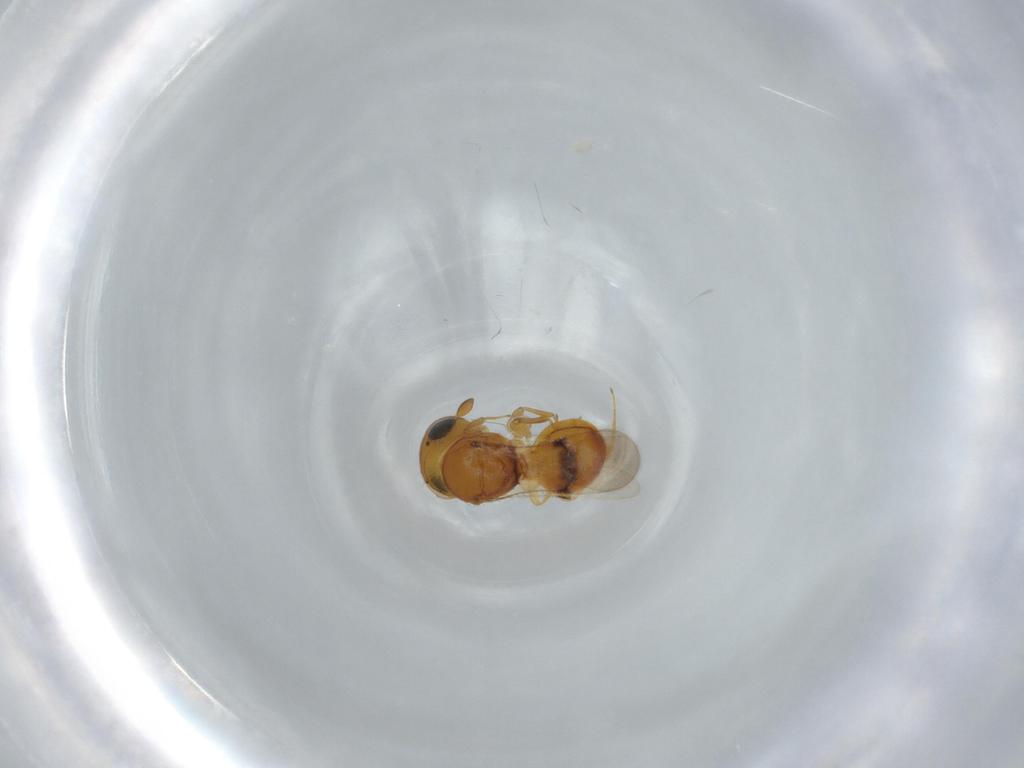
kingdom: Animalia
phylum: Arthropoda
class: Insecta
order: Hymenoptera
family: Scelionidae
